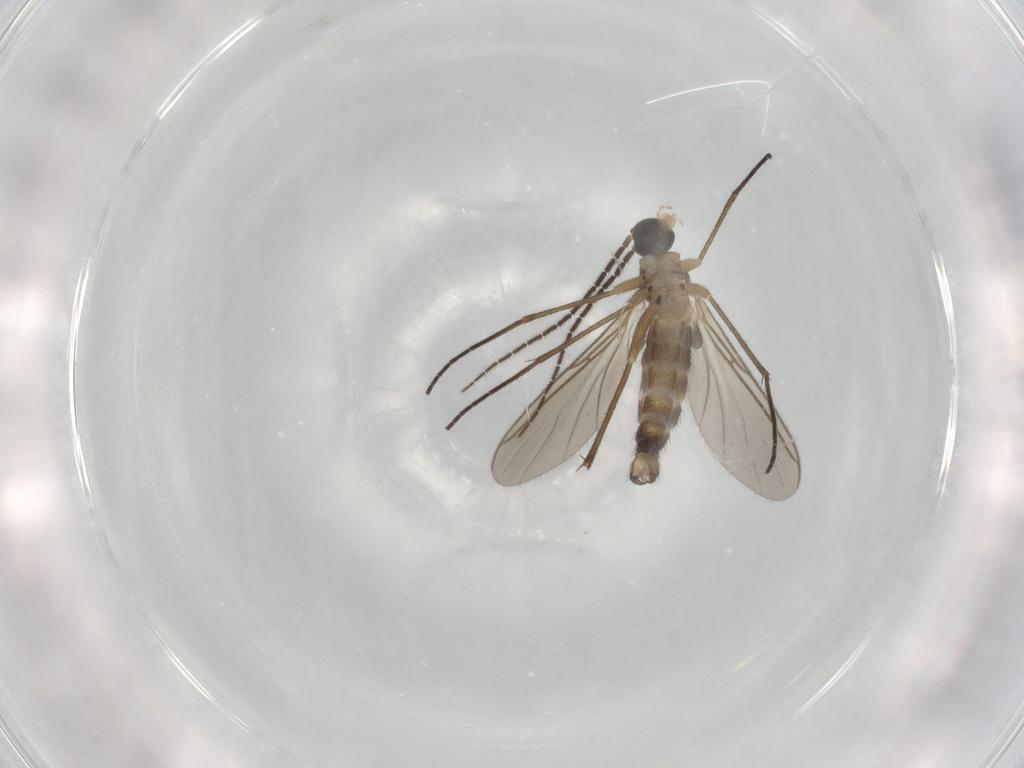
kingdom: Animalia
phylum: Arthropoda
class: Insecta
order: Diptera
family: Sciaridae
